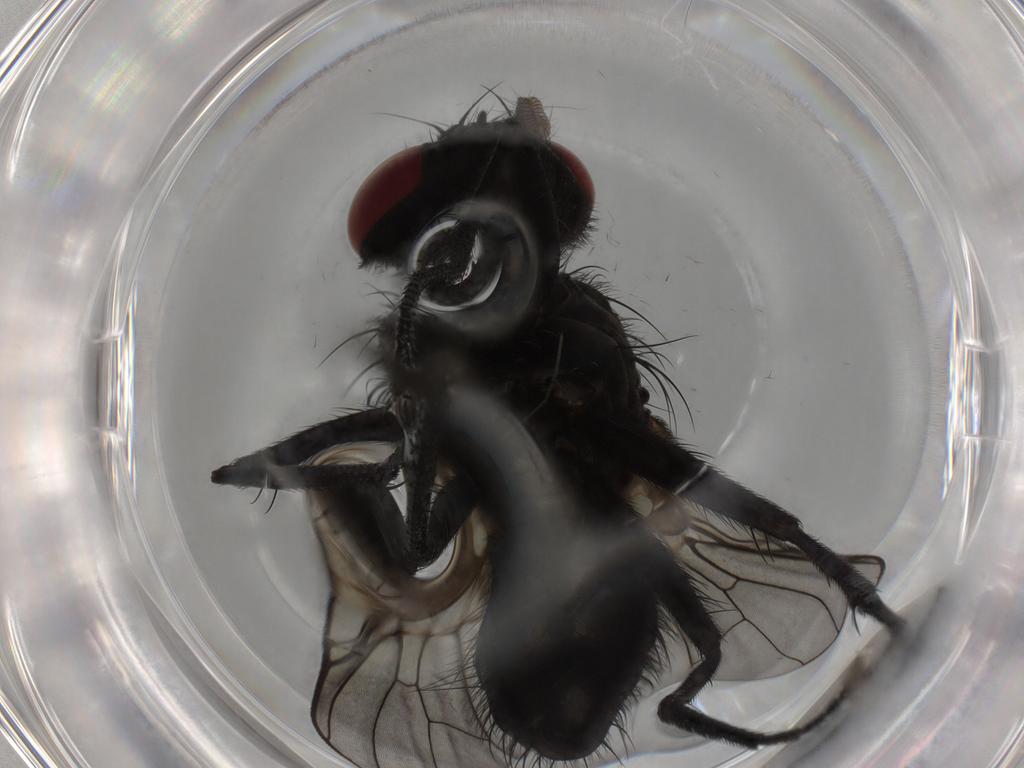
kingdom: Animalia
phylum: Arthropoda
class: Insecta
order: Diptera
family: Muscidae
